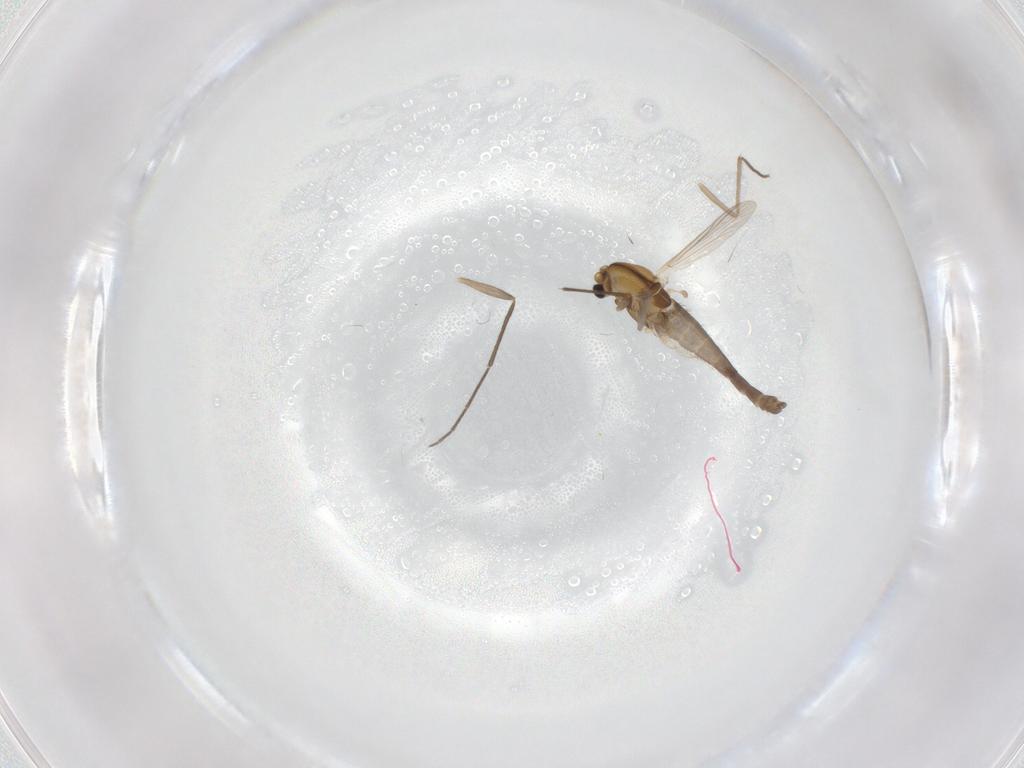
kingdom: Animalia
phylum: Arthropoda
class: Insecta
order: Diptera
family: Chironomidae
